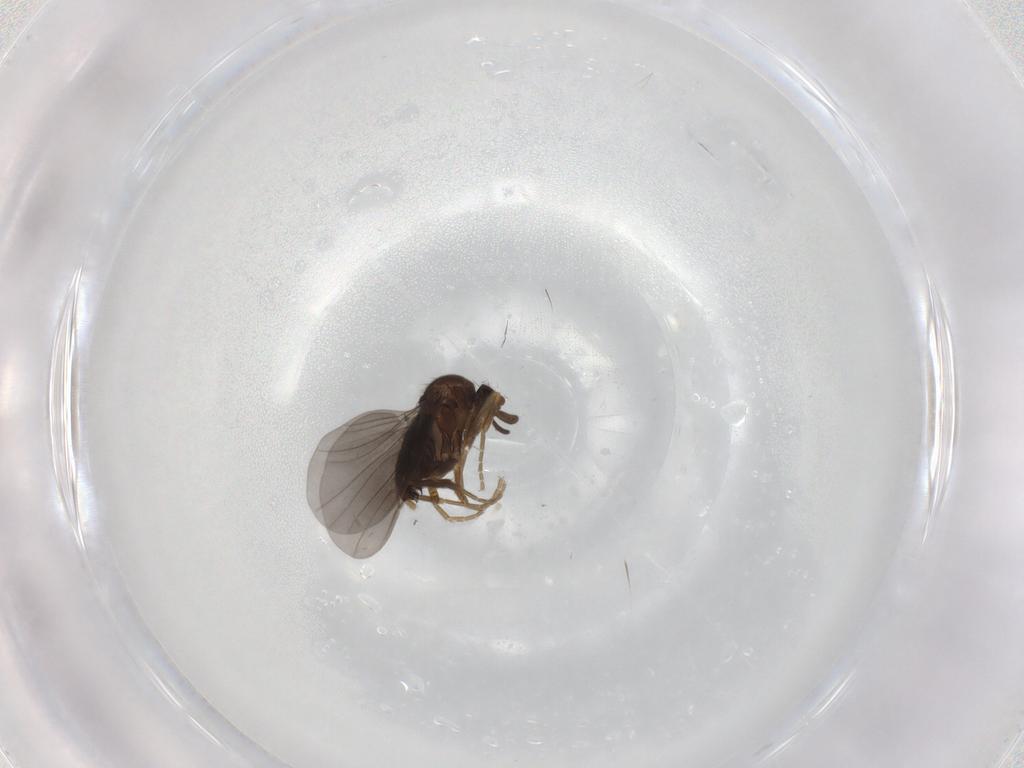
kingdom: Animalia
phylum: Arthropoda
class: Insecta
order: Diptera
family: Phoridae
